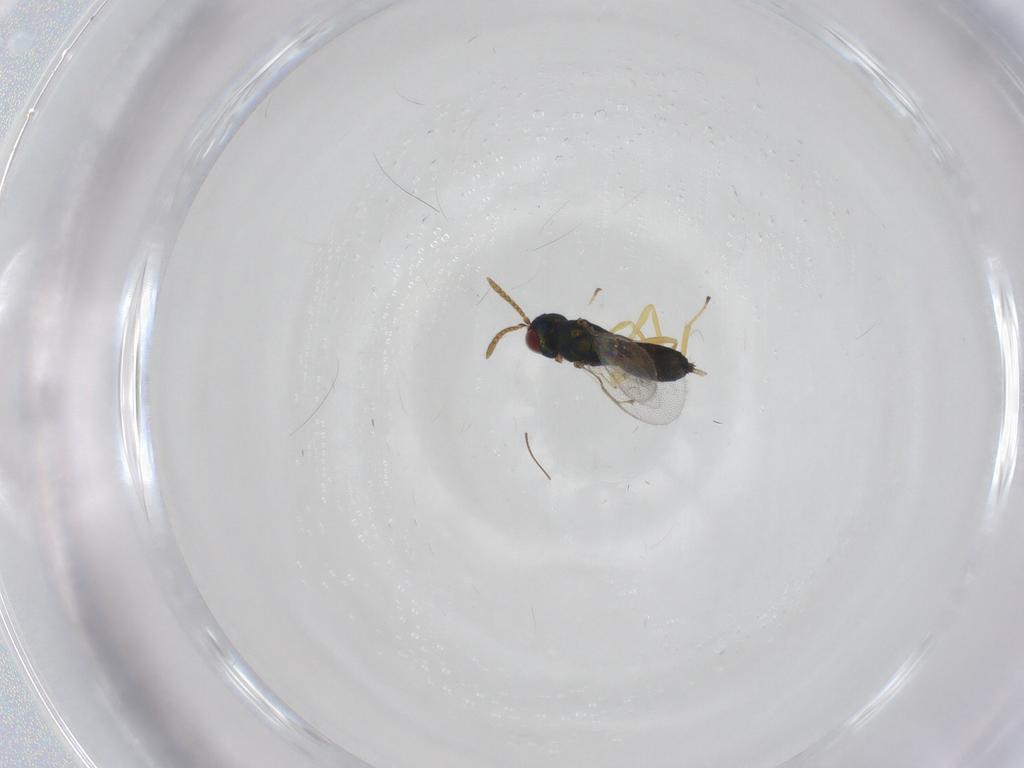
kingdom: Animalia
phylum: Arthropoda
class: Insecta
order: Hymenoptera
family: Pteromalidae
